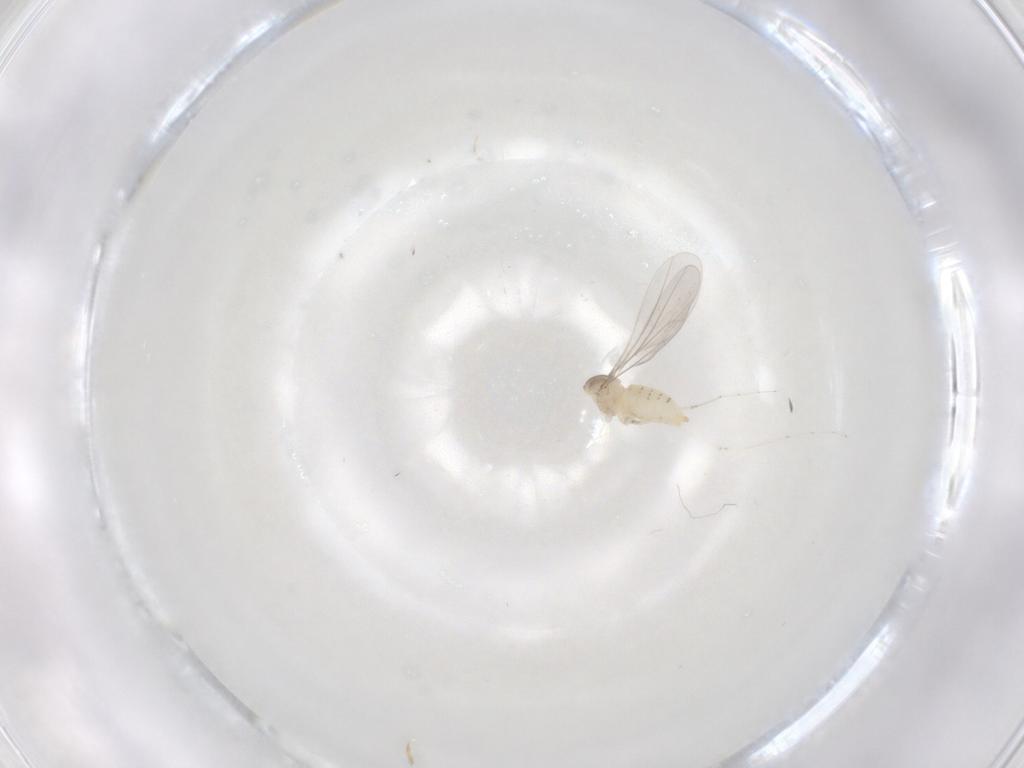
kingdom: Animalia
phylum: Arthropoda
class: Insecta
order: Diptera
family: Cecidomyiidae
